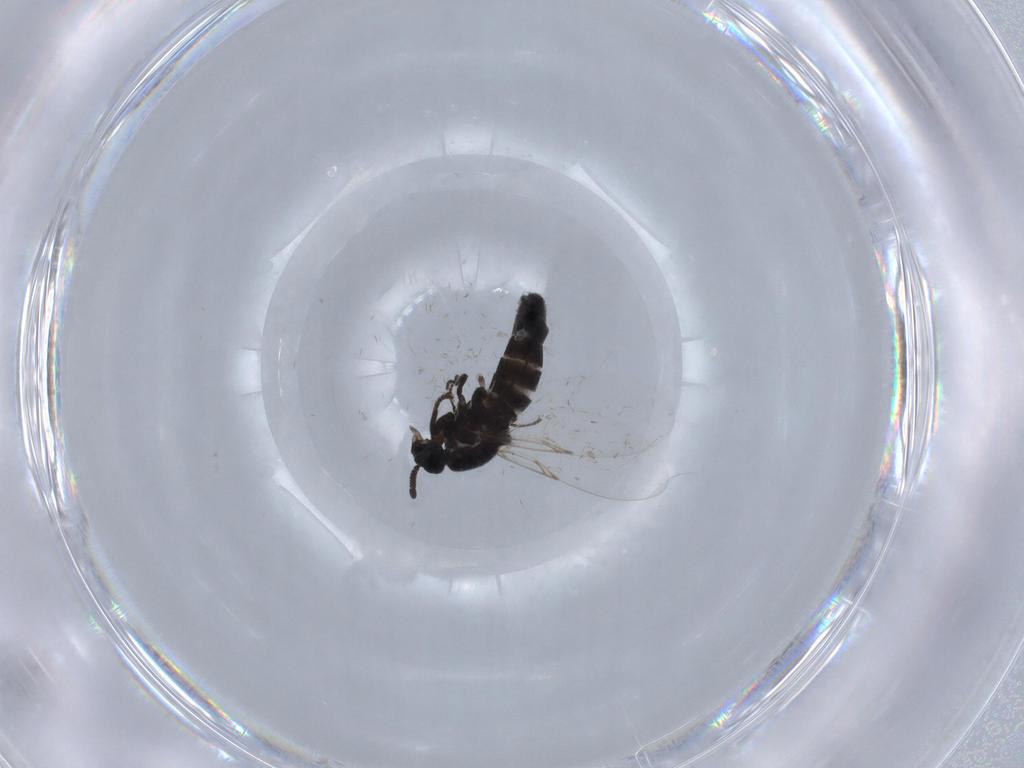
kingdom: Animalia
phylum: Arthropoda
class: Insecta
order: Diptera
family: Scatopsidae
